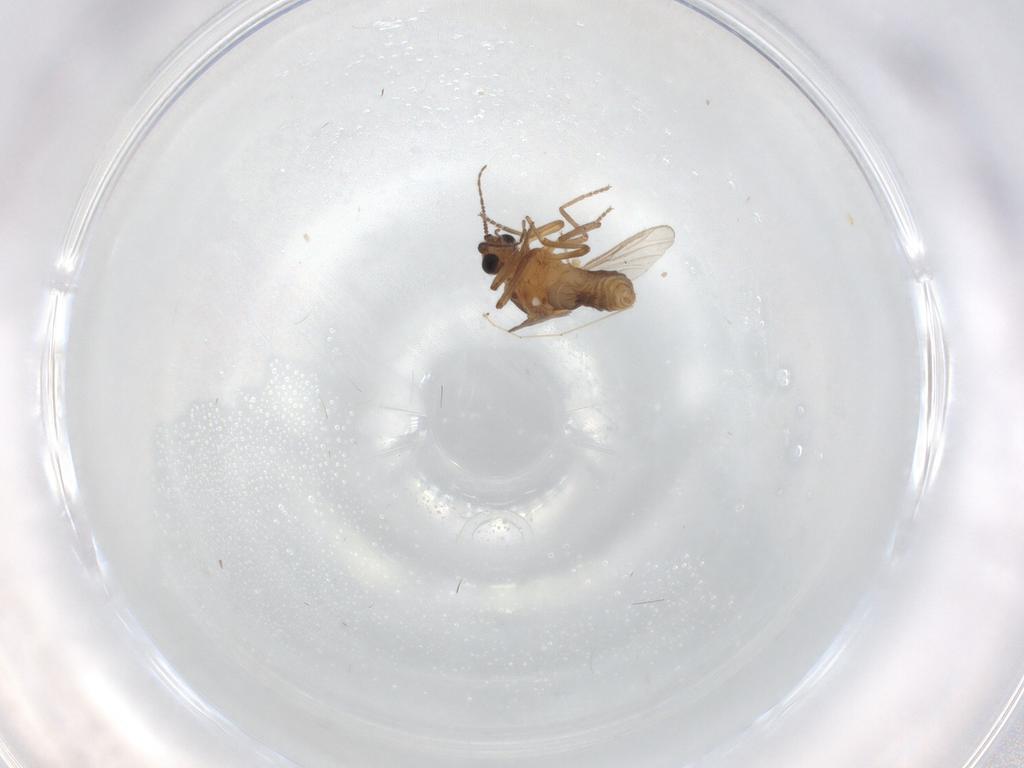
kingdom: Animalia
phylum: Arthropoda
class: Insecta
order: Diptera
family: Ceratopogonidae
